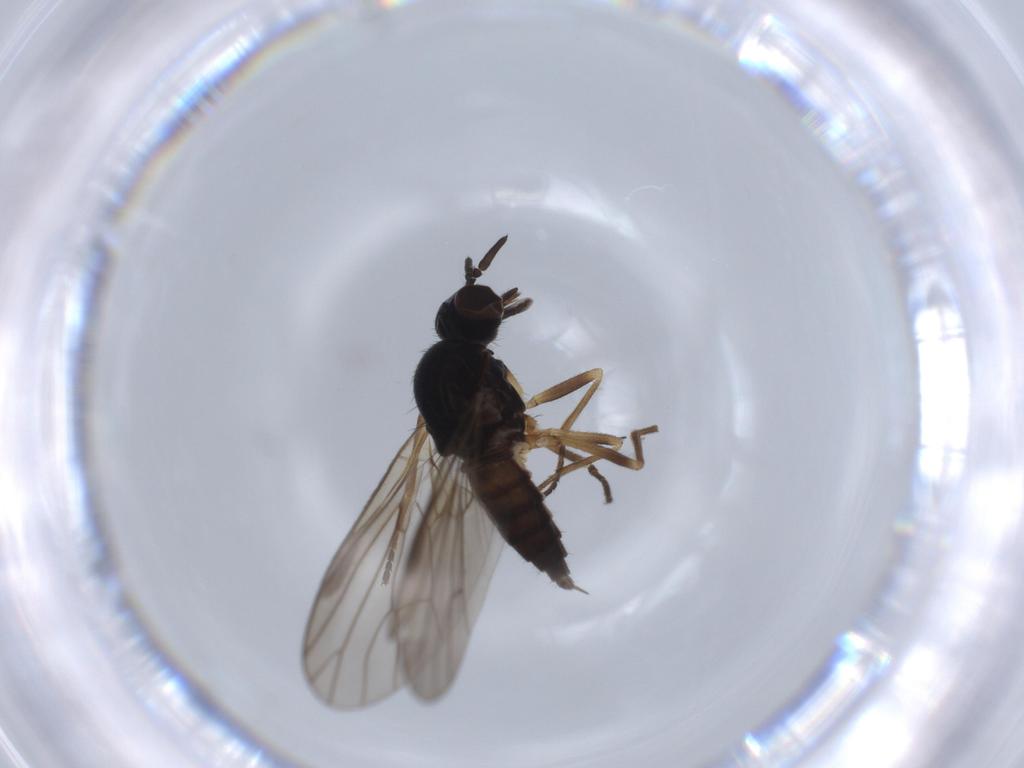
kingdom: Animalia
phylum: Arthropoda
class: Insecta
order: Diptera
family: Iteaphilidae
